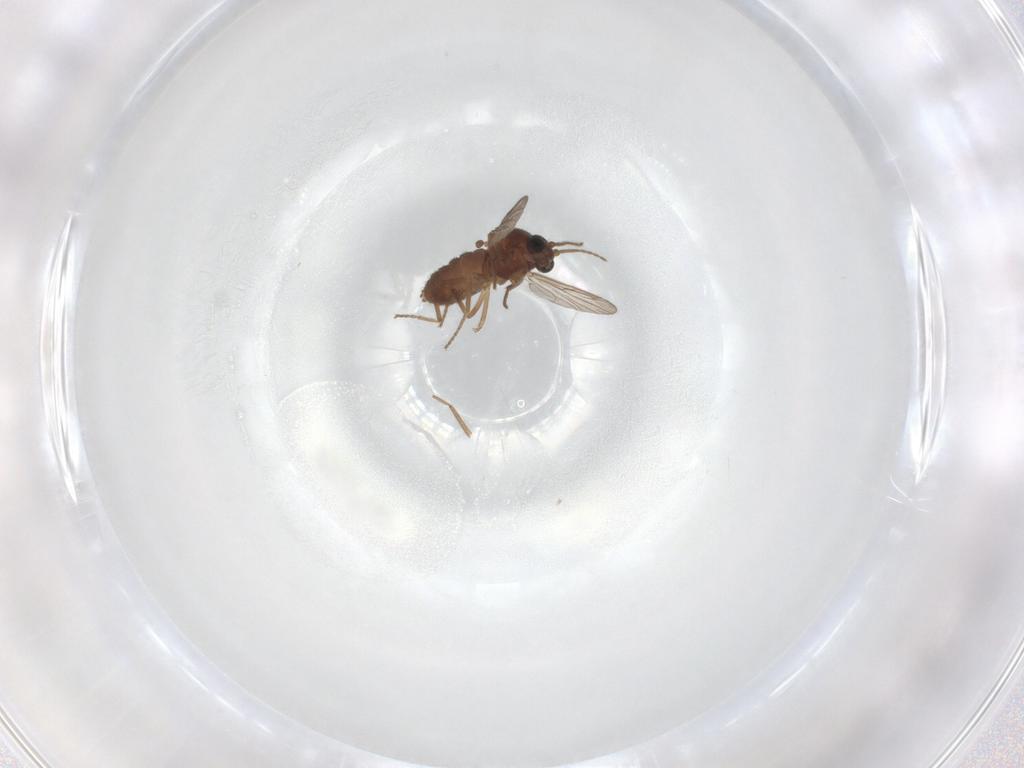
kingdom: Animalia
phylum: Arthropoda
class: Insecta
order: Diptera
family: Ceratopogonidae
